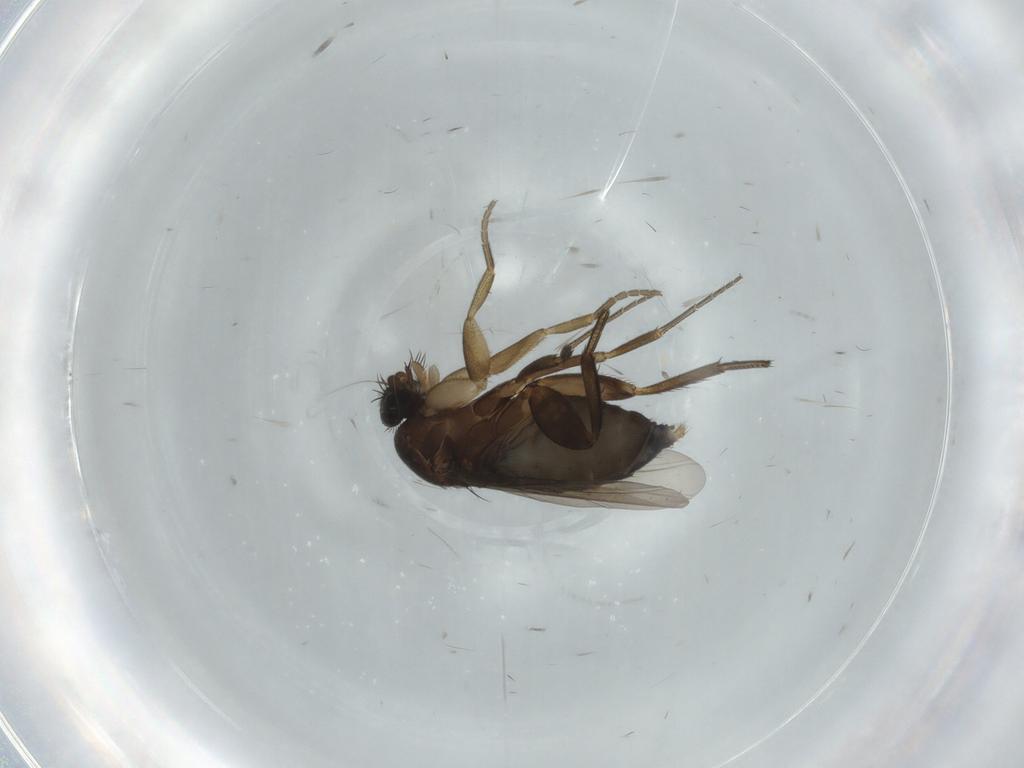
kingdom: Animalia
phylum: Arthropoda
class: Insecta
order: Diptera
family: Phoridae
